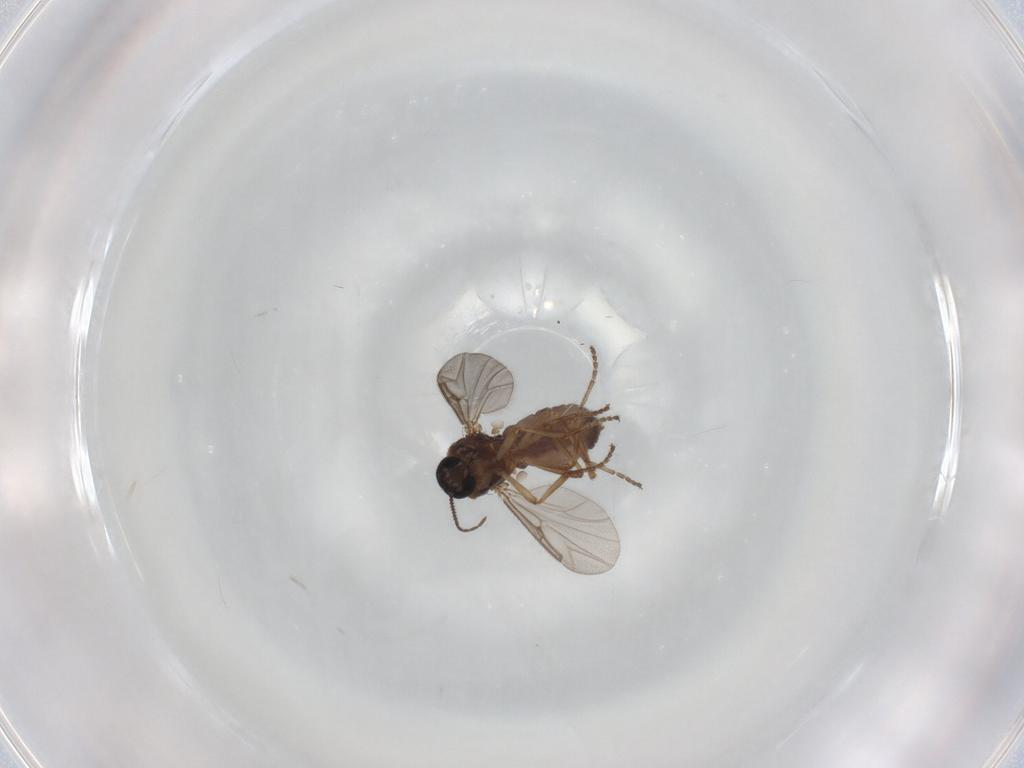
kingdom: Animalia
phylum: Arthropoda
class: Insecta
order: Diptera
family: Ceratopogonidae
